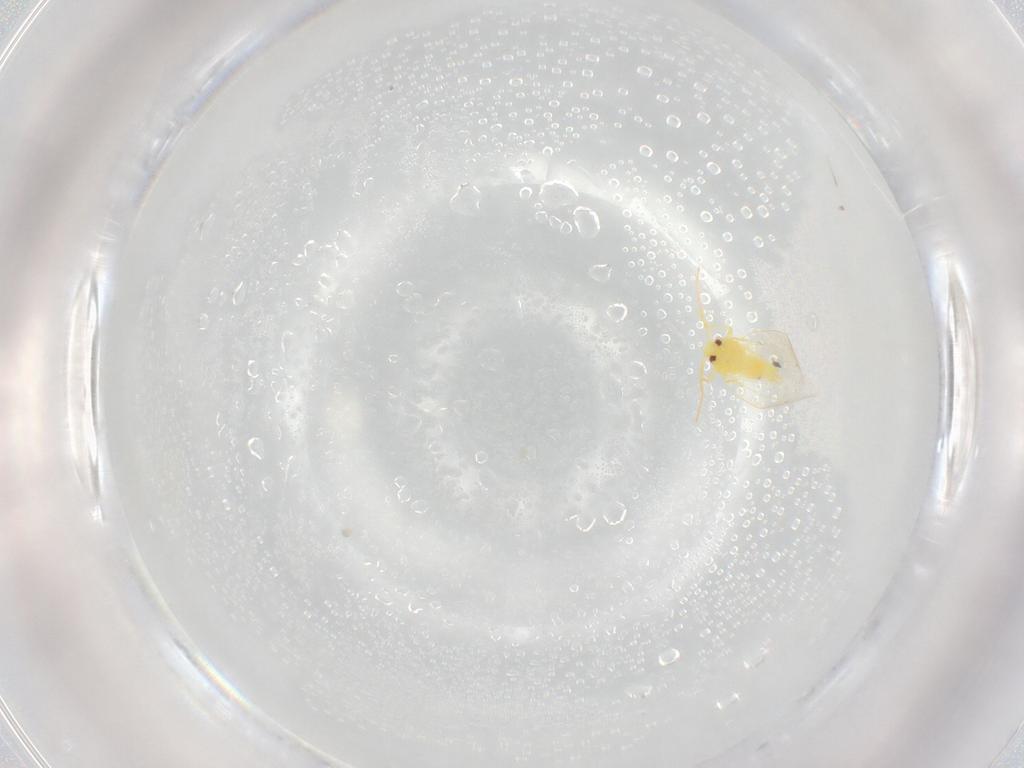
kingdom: Animalia
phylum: Arthropoda
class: Insecta
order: Hemiptera
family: Aleyrodidae
